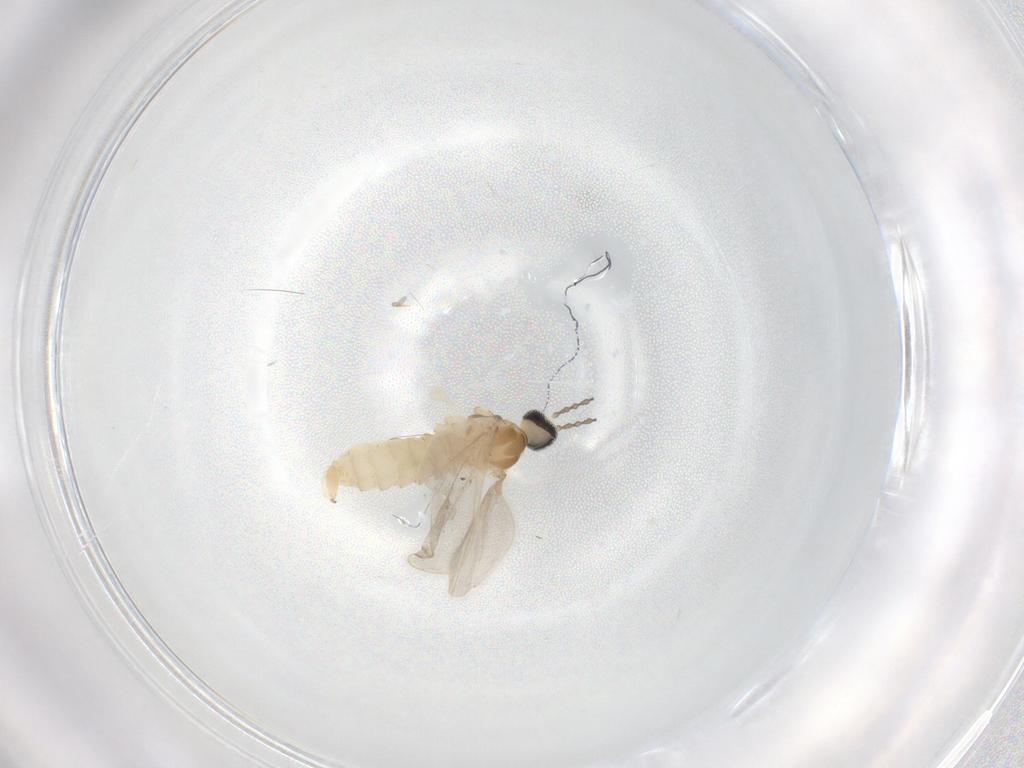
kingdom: Animalia
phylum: Arthropoda
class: Insecta
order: Diptera
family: Cecidomyiidae
